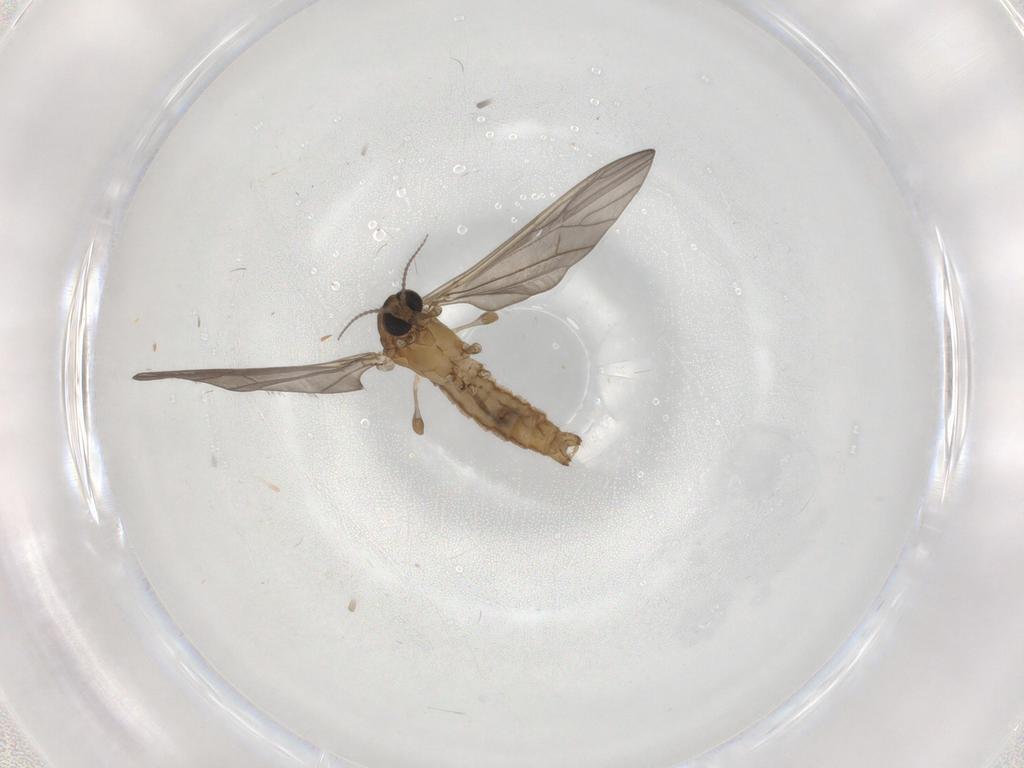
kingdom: Animalia
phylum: Arthropoda
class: Insecta
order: Diptera
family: Limoniidae
